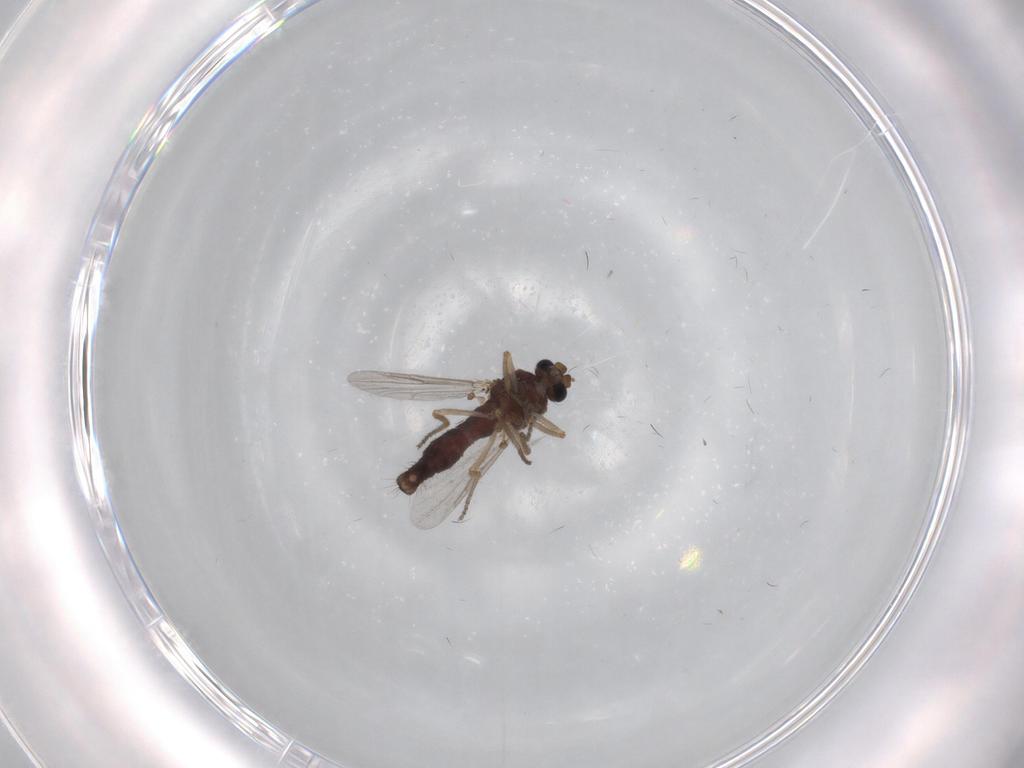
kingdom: Animalia
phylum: Arthropoda
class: Insecta
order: Diptera
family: Ceratopogonidae
